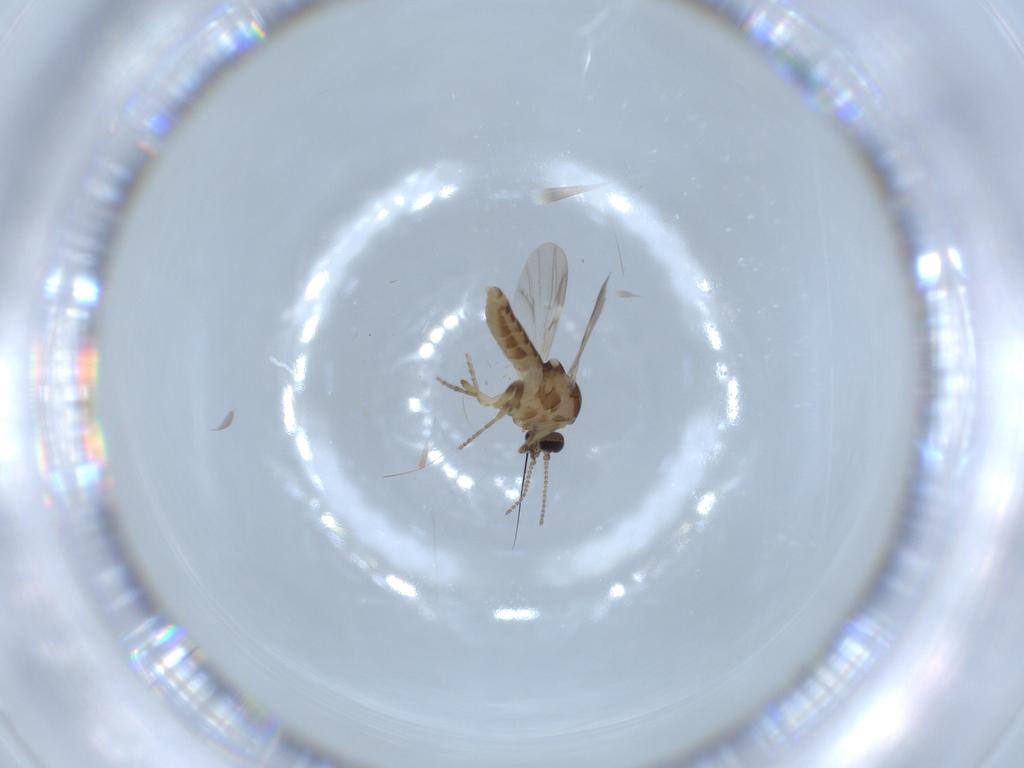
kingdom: Animalia
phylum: Arthropoda
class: Insecta
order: Diptera
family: Ceratopogonidae
